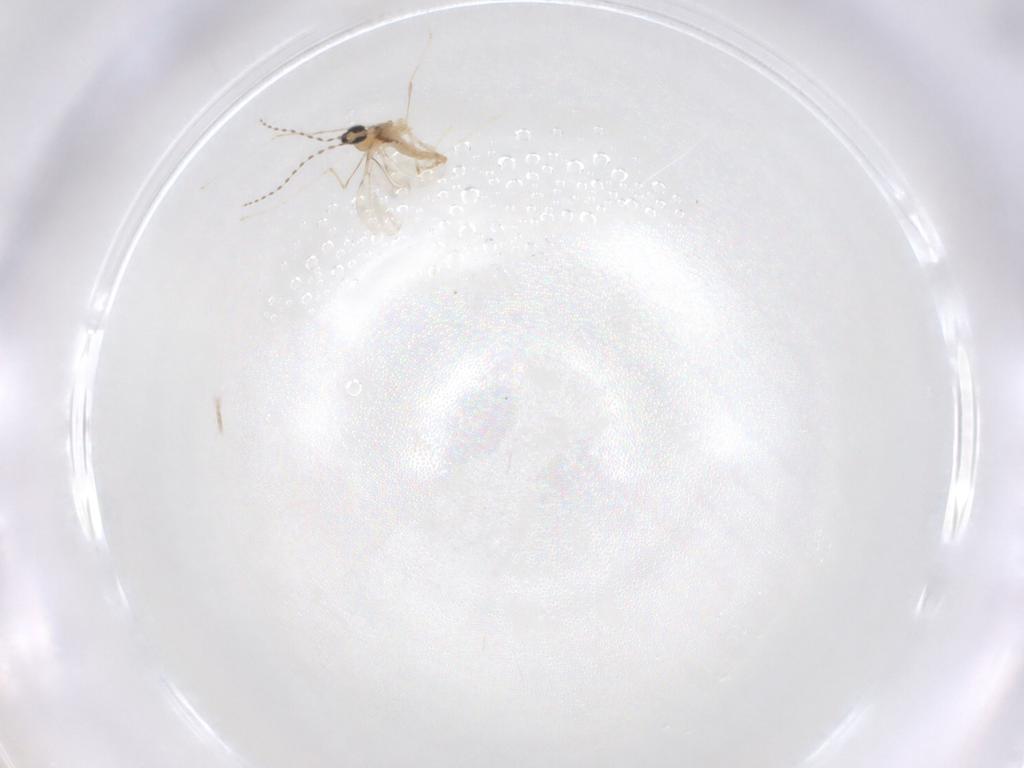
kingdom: Animalia
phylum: Arthropoda
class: Insecta
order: Diptera
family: Cecidomyiidae
